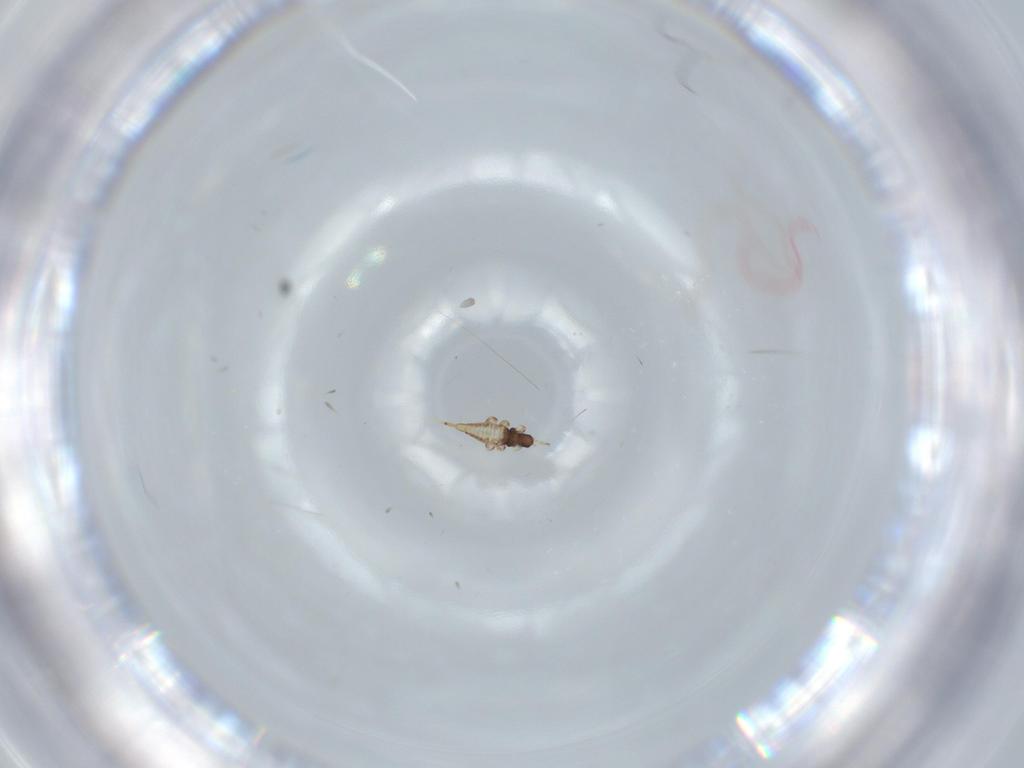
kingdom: Animalia
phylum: Arthropoda
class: Insecta
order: Thysanoptera
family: Phlaeothripidae
